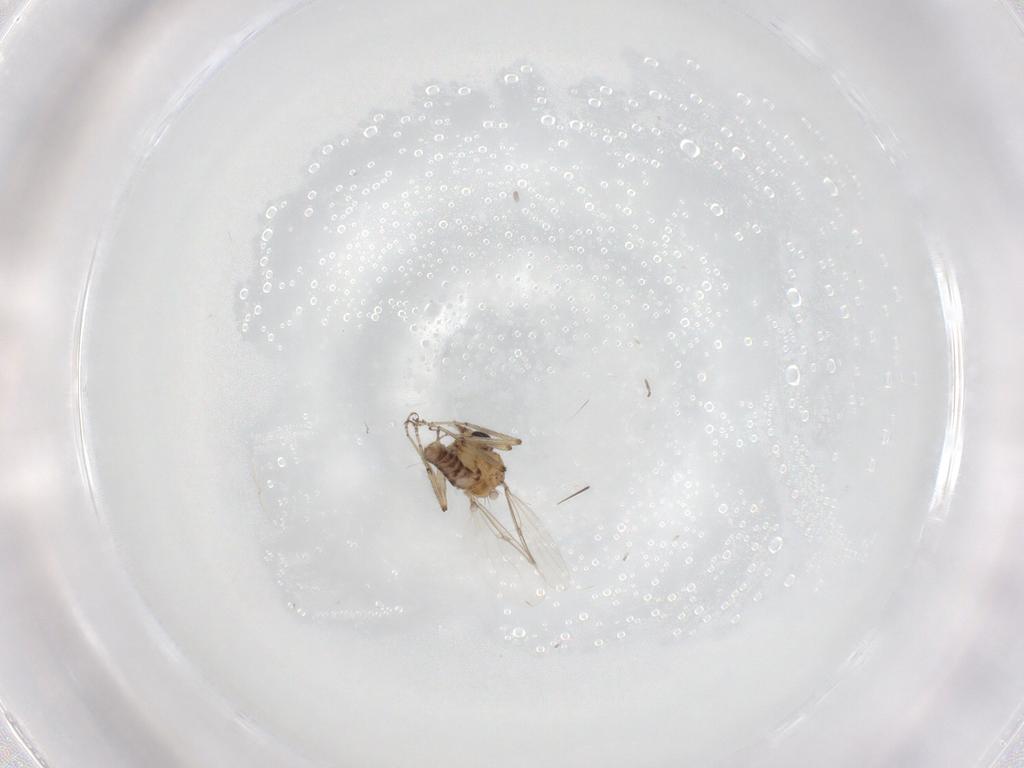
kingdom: Animalia
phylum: Arthropoda
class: Insecta
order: Diptera
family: Ceratopogonidae
